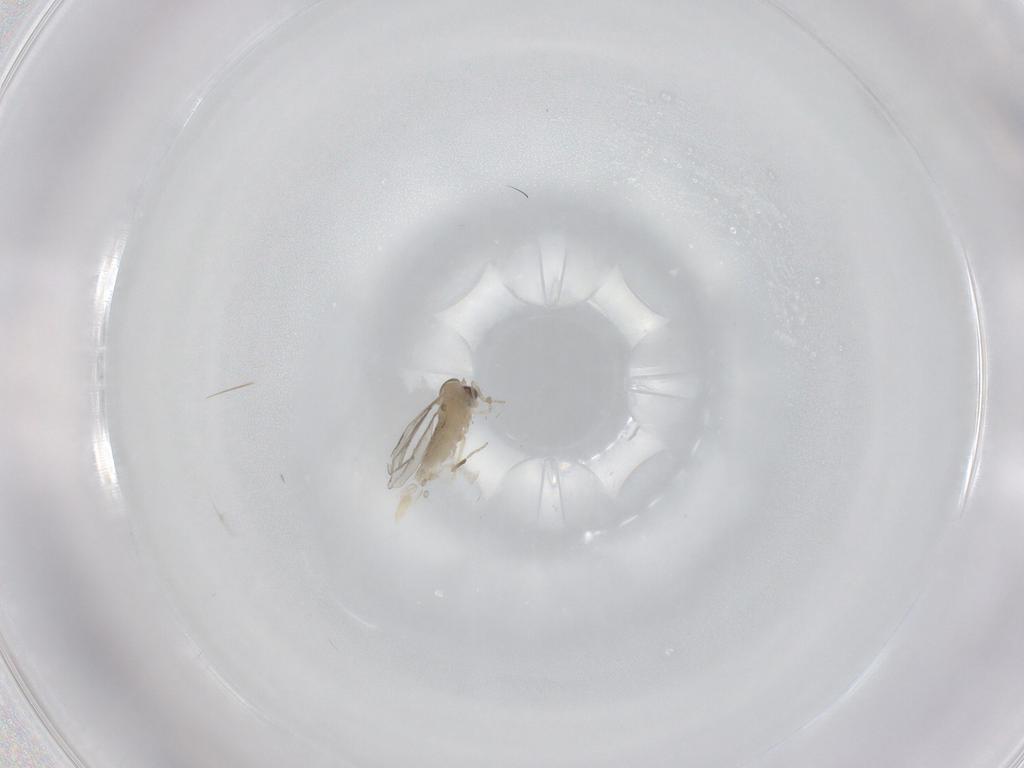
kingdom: Animalia
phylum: Arthropoda
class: Insecta
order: Diptera
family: Cecidomyiidae
